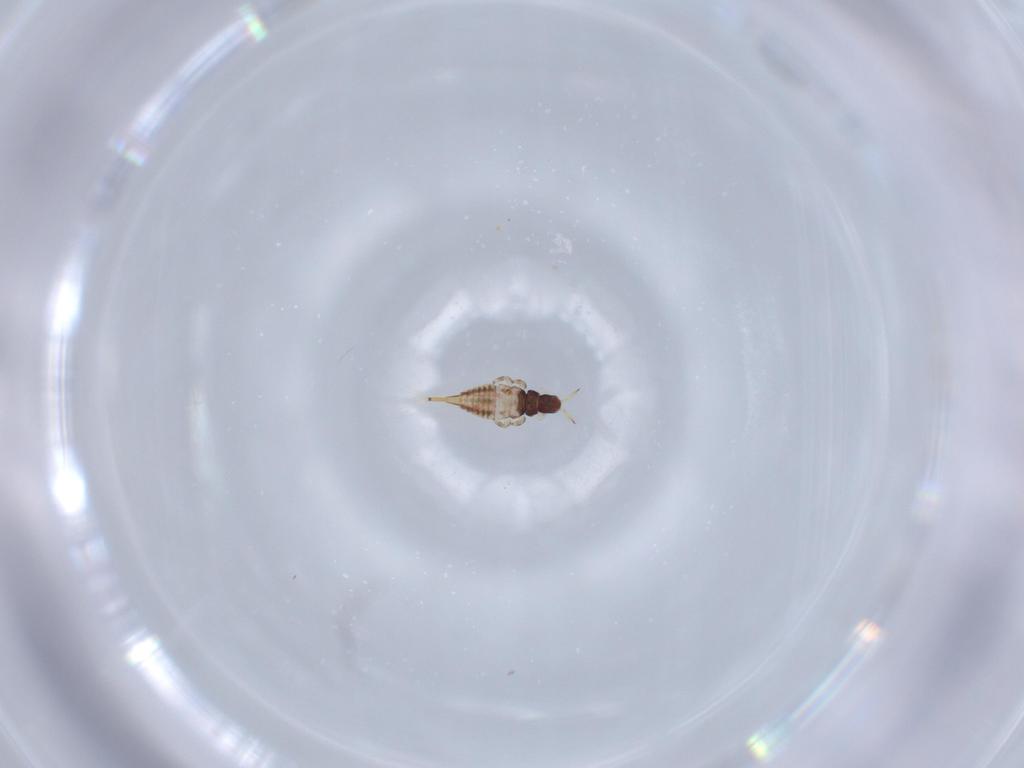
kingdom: Animalia
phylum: Arthropoda
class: Insecta
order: Thysanoptera
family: Phlaeothripidae
